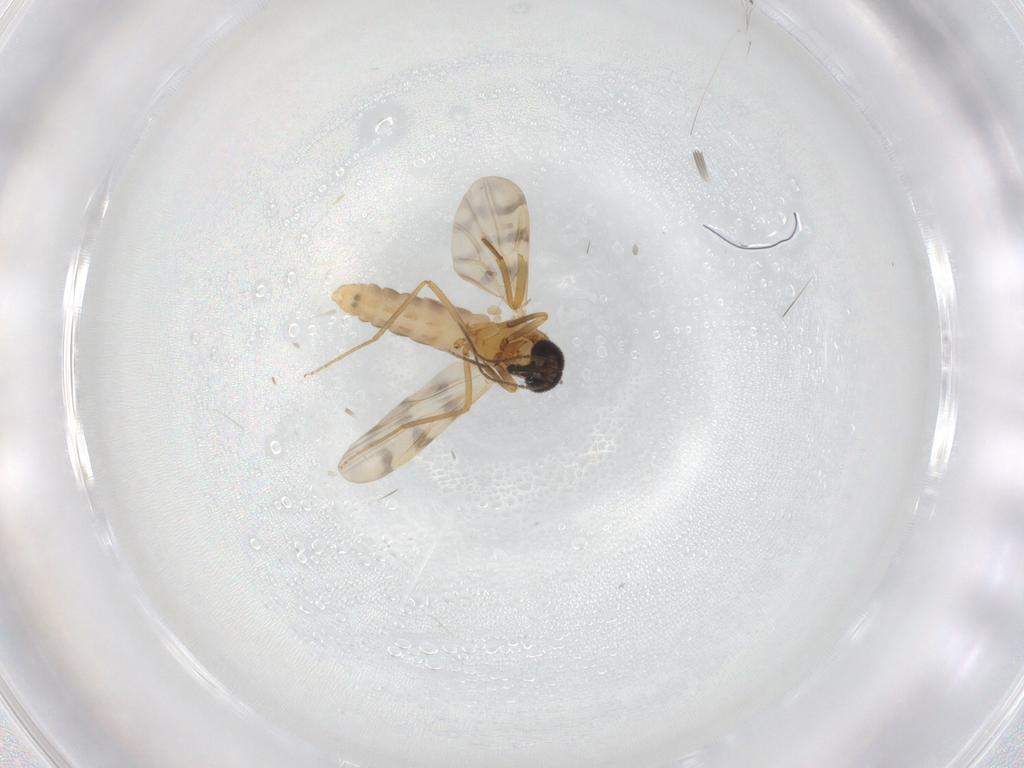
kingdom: Animalia
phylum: Arthropoda
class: Insecta
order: Diptera
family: Ceratopogonidae
